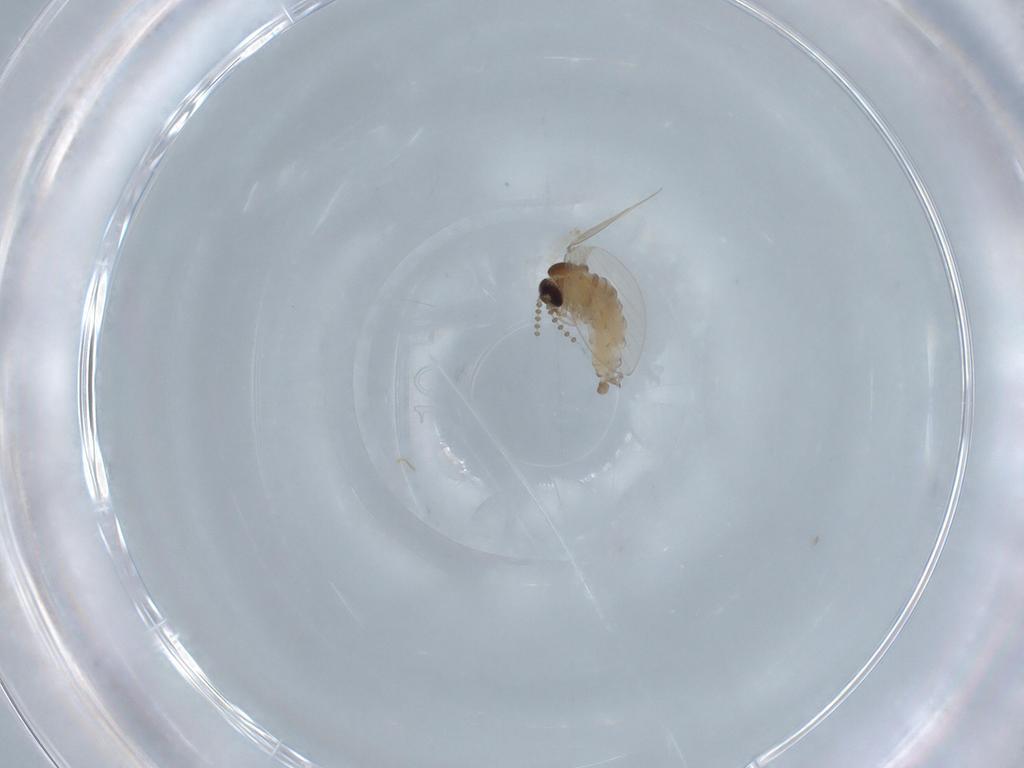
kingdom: Animalia
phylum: Arthropoda
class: Insecta
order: Diptera
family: Psychodidae
